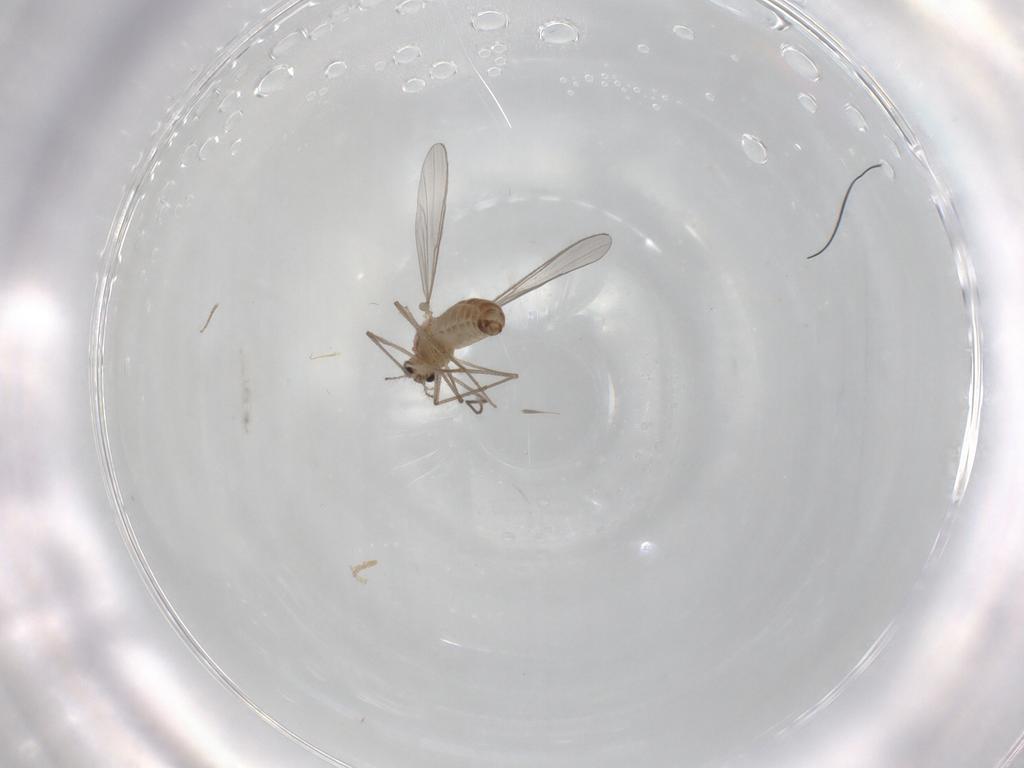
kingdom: Animalia
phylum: Arthropoda
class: Insecta
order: Diptera
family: Chironomidae
